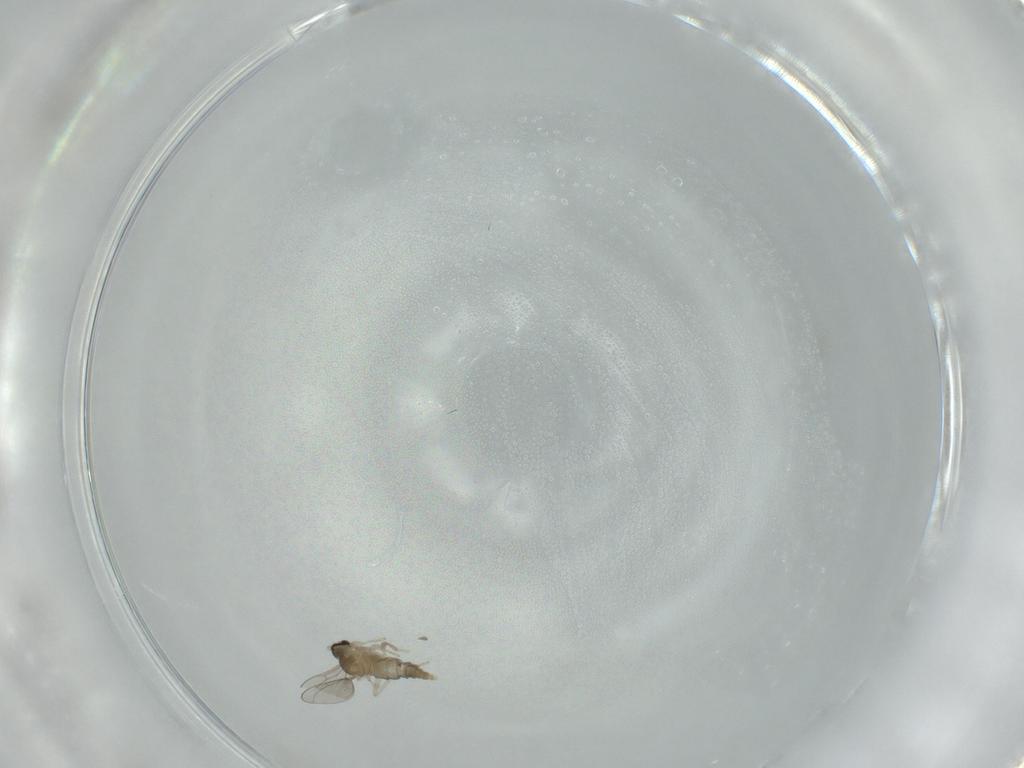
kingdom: Animalia
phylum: Arthropoda
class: Insecta
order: Diptera
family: Cecidomyiidae
